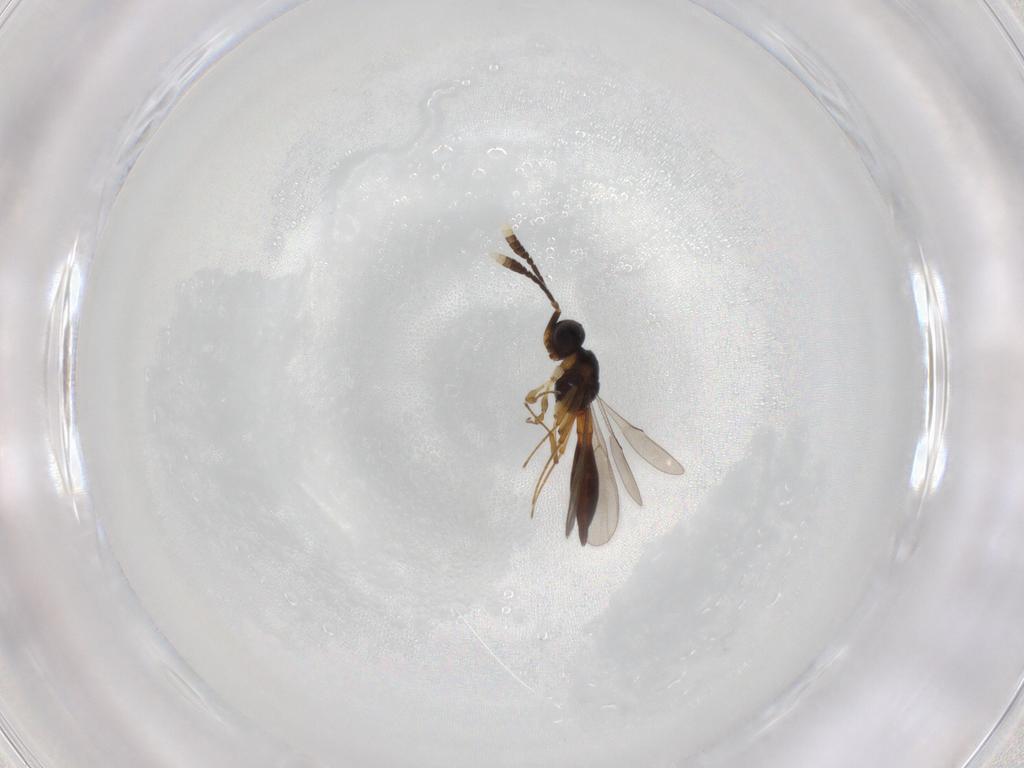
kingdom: Animalia
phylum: Arthropoda
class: Insecta
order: Hymenoptera
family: Scelionidae
